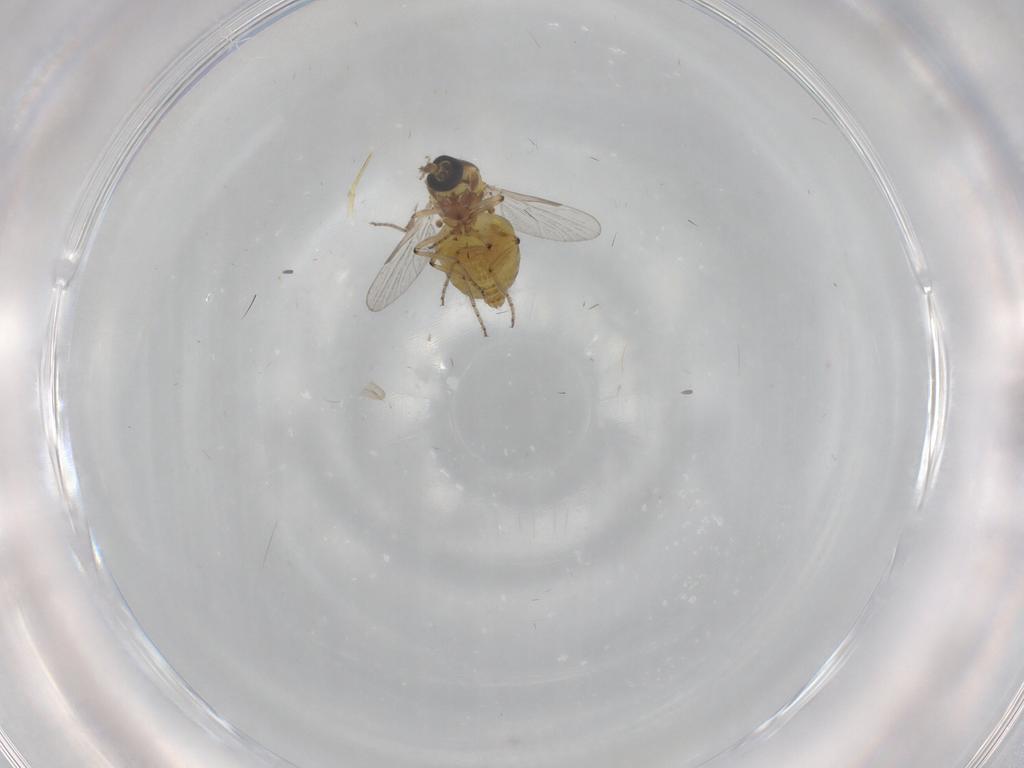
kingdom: Animalia
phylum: Arthropoda
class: Insecta
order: Diptera
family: Ceratopogonidae
